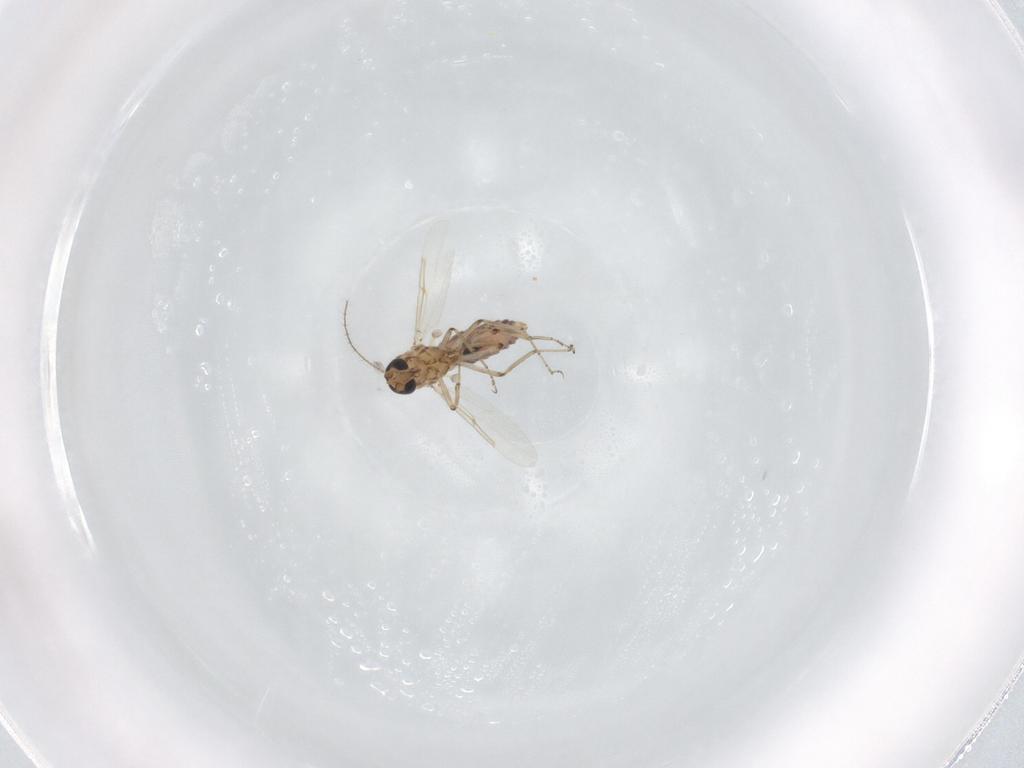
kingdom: Animalia
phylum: Arthropoda
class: Insecta
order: Diptera
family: Ceratopogonidae
